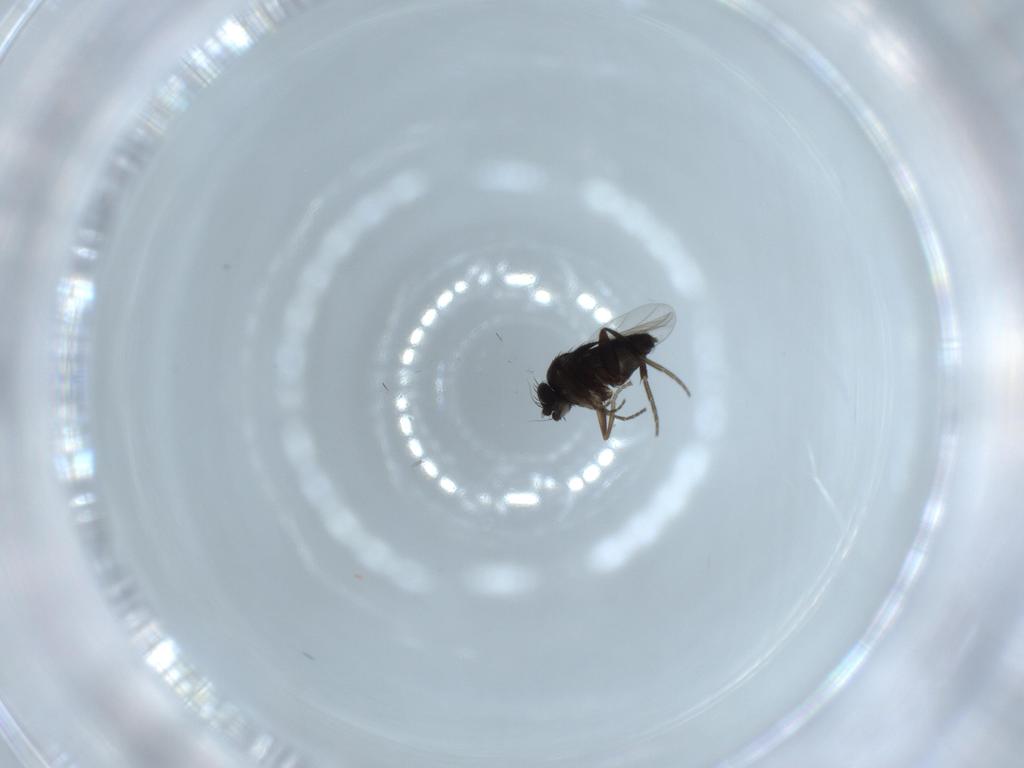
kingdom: Animalia
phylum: Arthropoda
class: Insecta
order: Diptera
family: Phoridae
